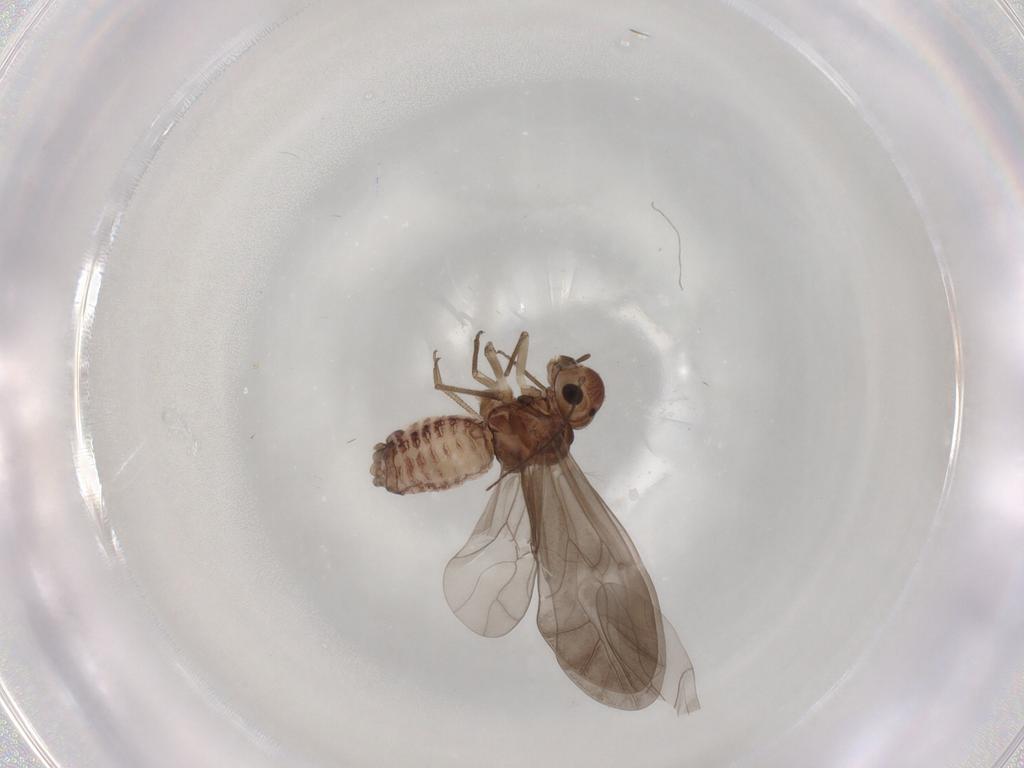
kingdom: Animalia
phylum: Arthropoda
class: Insecta
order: Psocodea
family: Peripsocidae
